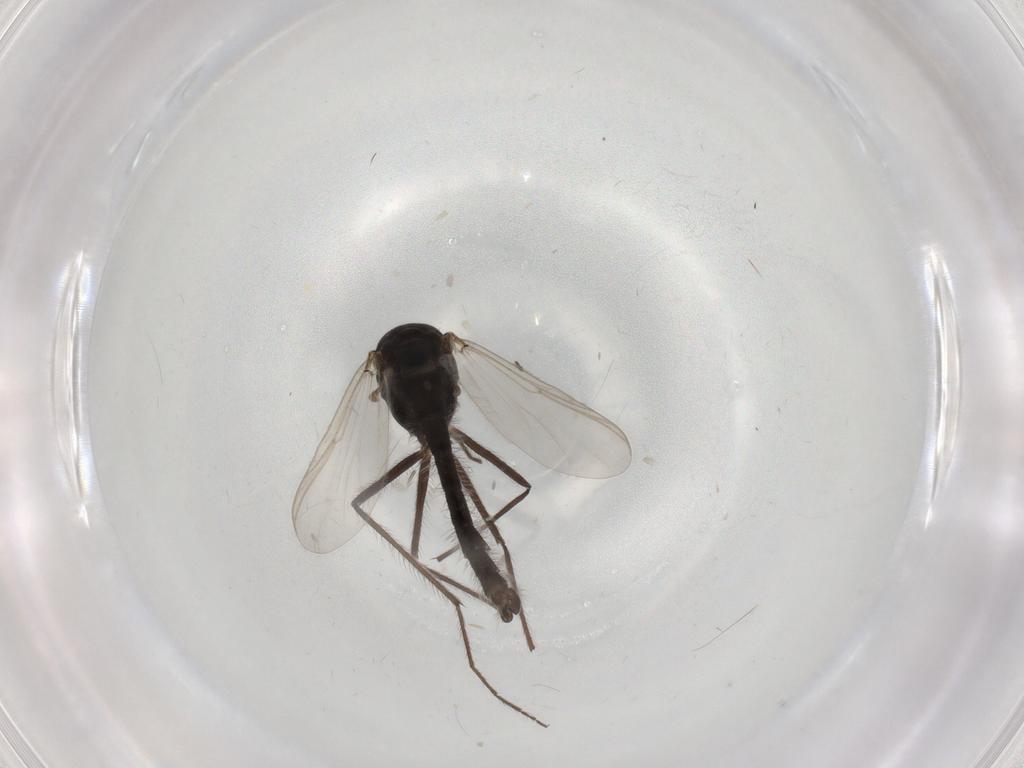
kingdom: Animalia
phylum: Arthropoda
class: Insecta
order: Diptera
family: Chironomidae
